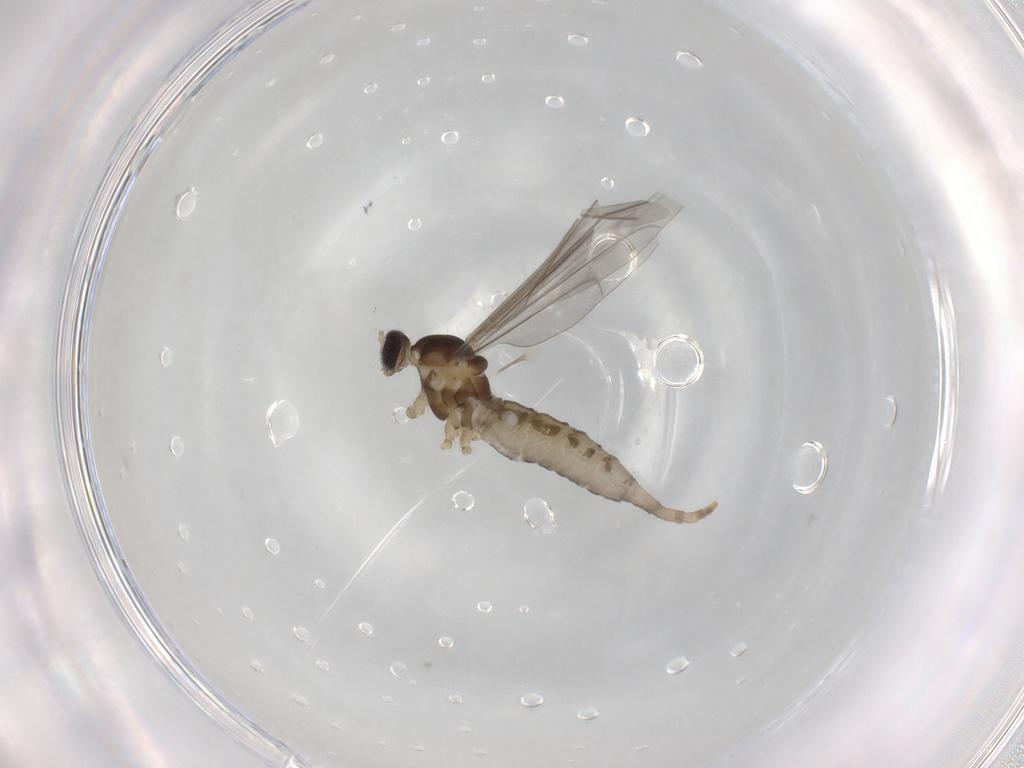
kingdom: Animalia
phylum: Arthropoda
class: Insecta
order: Diptera
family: Cecidomyiidae
